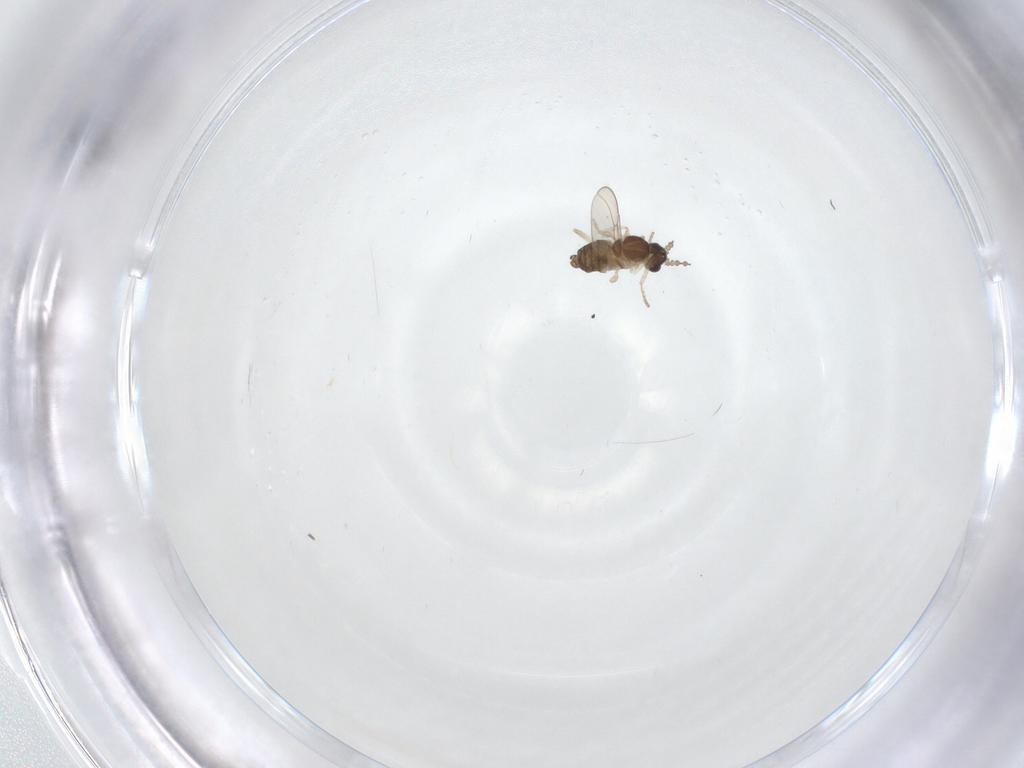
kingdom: Animalia
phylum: Arthropoda
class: Insecta
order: Diptera
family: Cecidomyiidae
